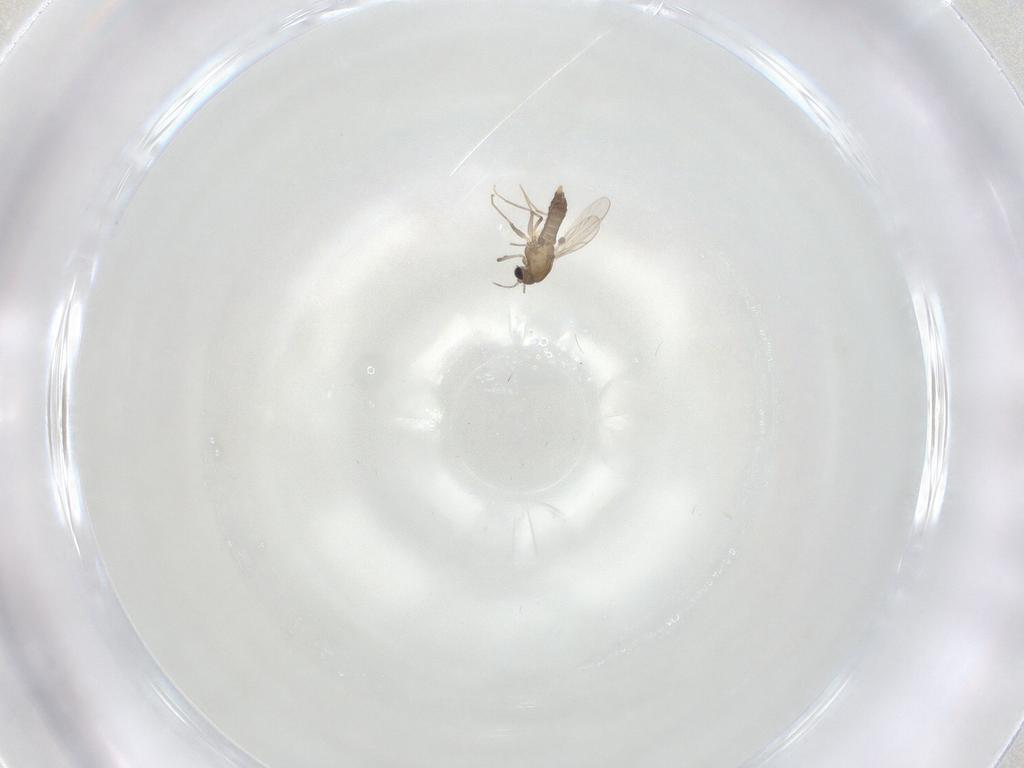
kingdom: Animalia
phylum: Arthropoda
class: Insecta
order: Diptera
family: Chironomidae
